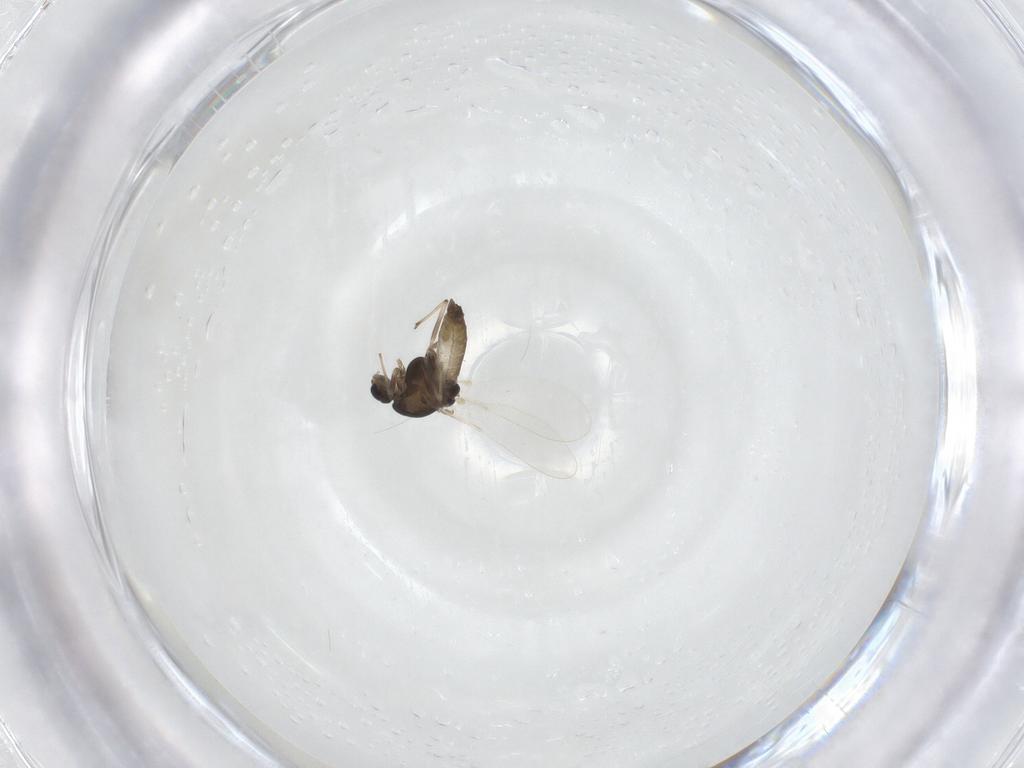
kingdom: Animalia
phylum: Arthropoda
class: Insecta
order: Diptera
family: Chironomidae
